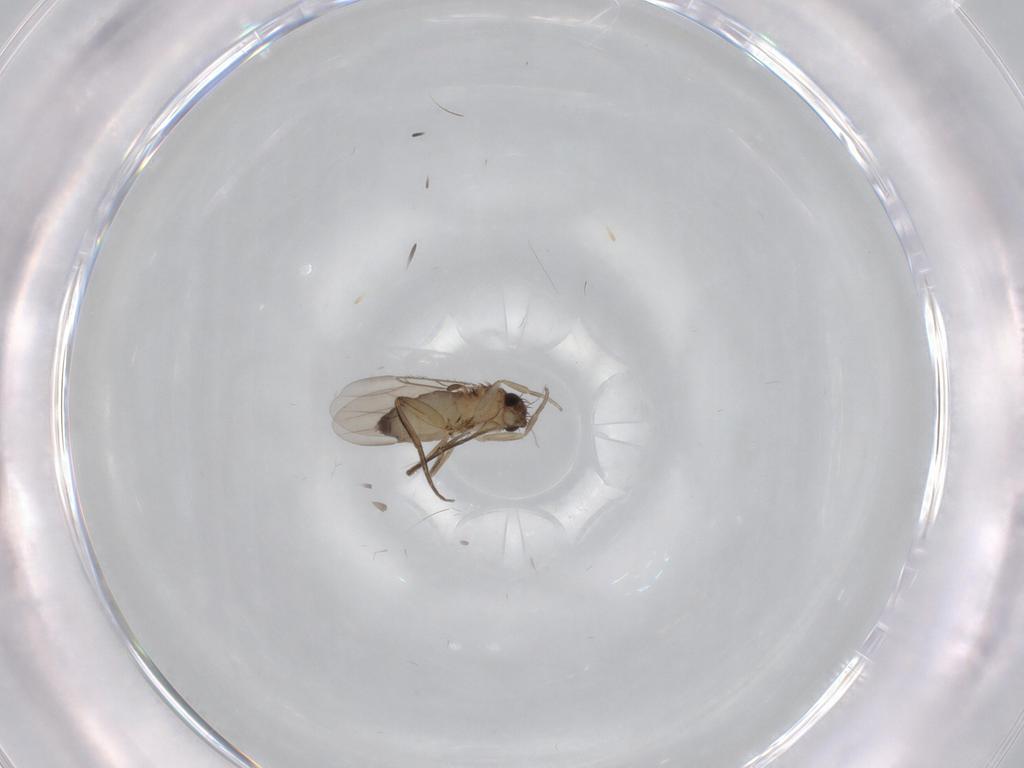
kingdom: Animalia
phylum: Arthropoda
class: Insecta
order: Diptera
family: Phoridae
